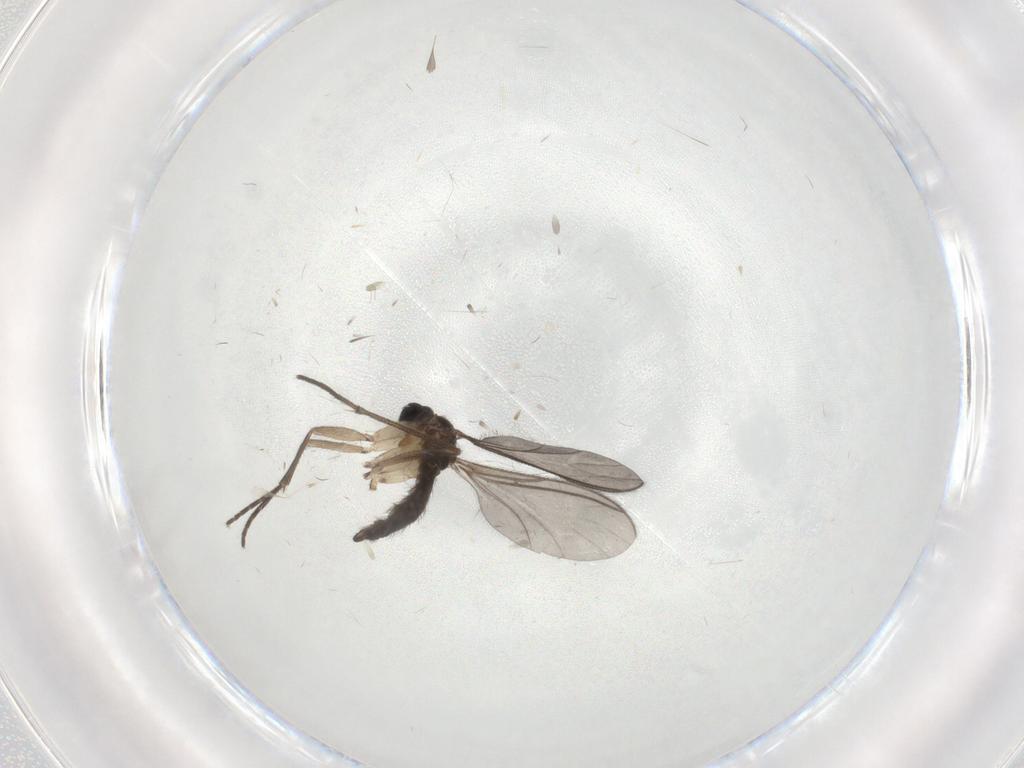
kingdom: Animalia
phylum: Arthropoda
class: Insecta
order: Diptera
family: Sciaridae
